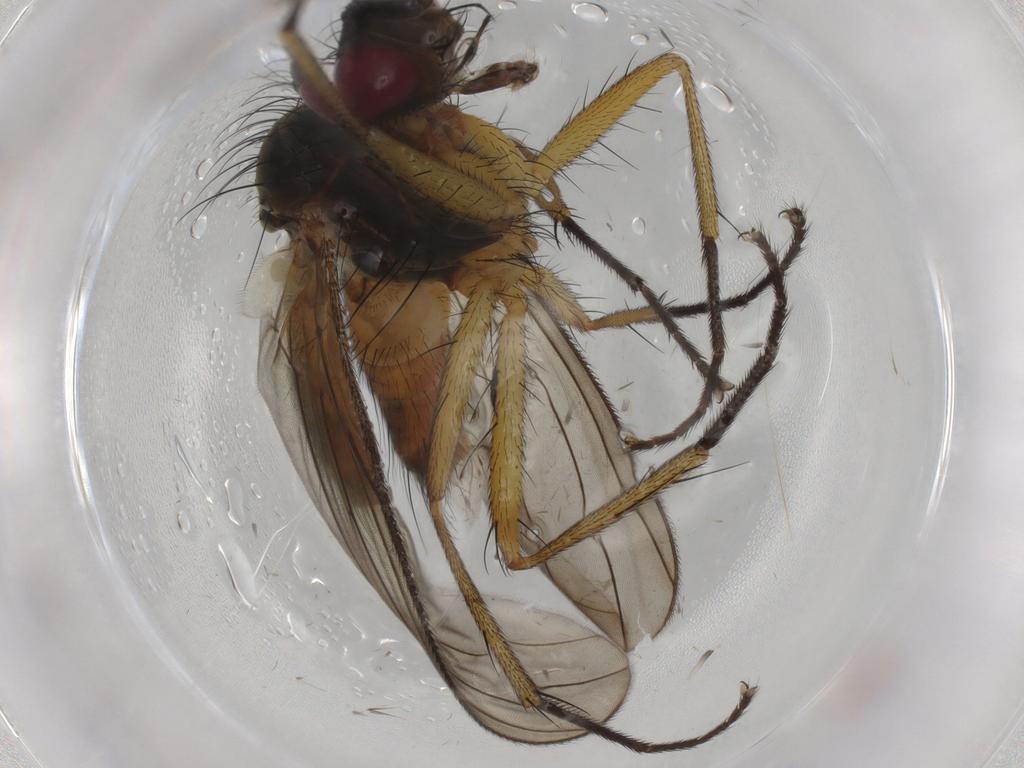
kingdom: Animalia
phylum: Arthropoda
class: Insecta
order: Diptera
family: Muscidae
